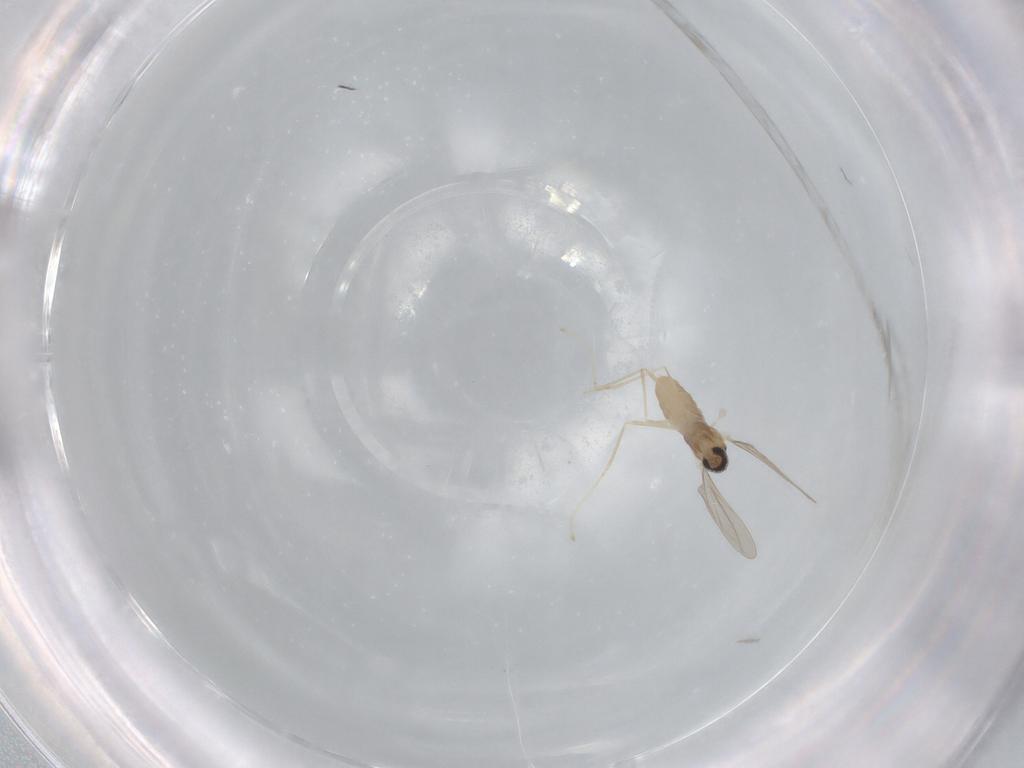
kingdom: Animalia
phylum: Arthropoda
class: Insecta
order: Diptera
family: Cecidomyiidae
